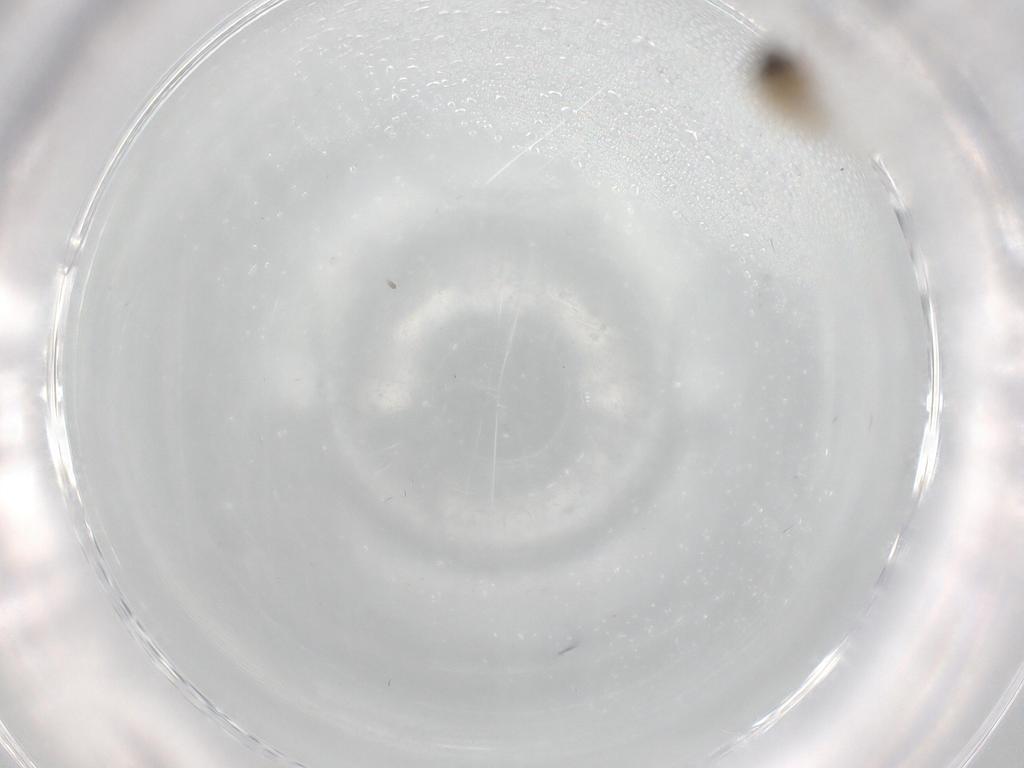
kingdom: Animalia
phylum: Arthropoda
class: Insecta
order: Diptera
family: Cecidomyiidae
